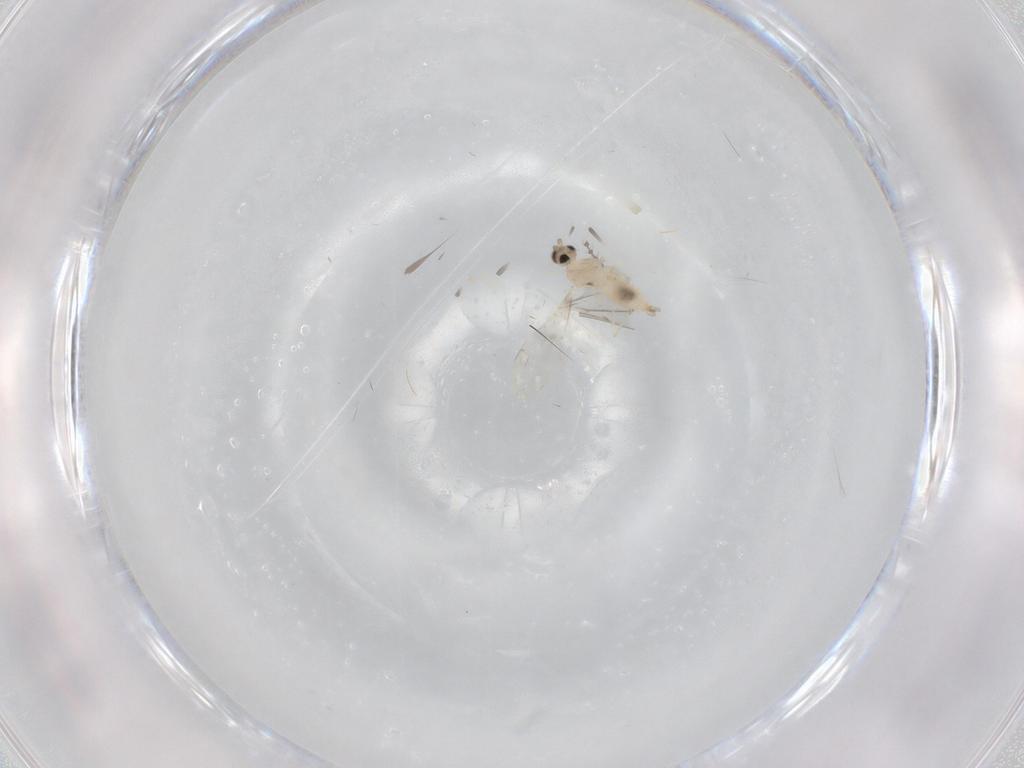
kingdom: Animalia
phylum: Arthropoda
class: Insecta
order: Diptera
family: Cecidomyiidae
